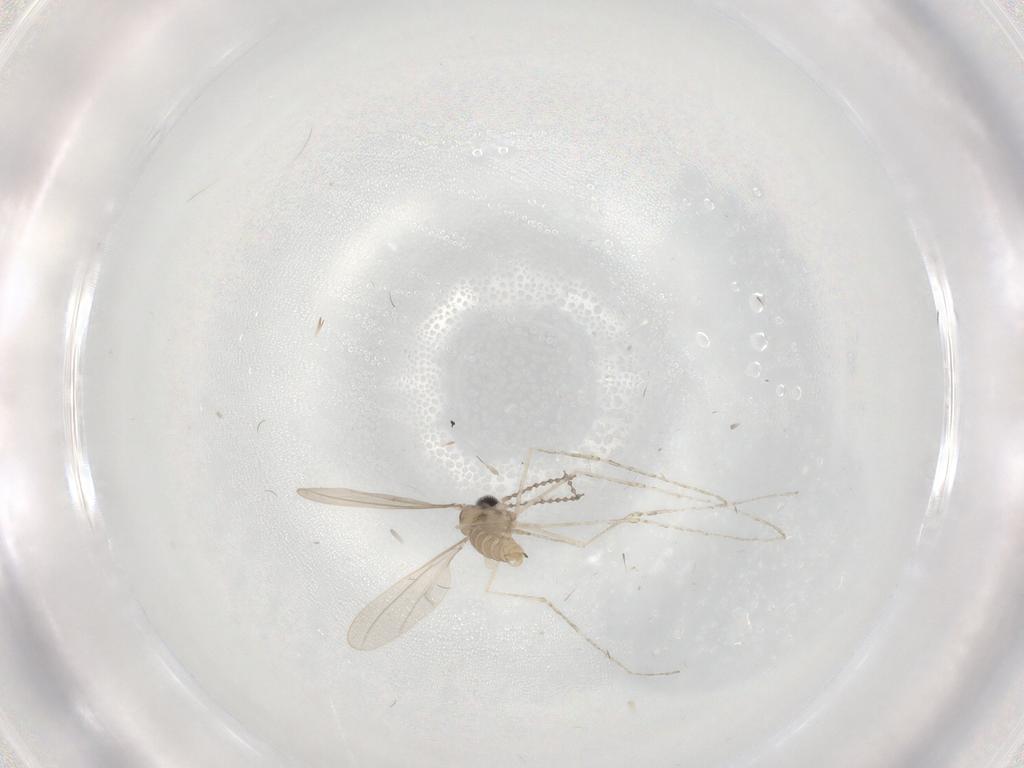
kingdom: Animalia
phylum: Arthropoda
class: Insecta
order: Diptera
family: Cecidomyiidae
